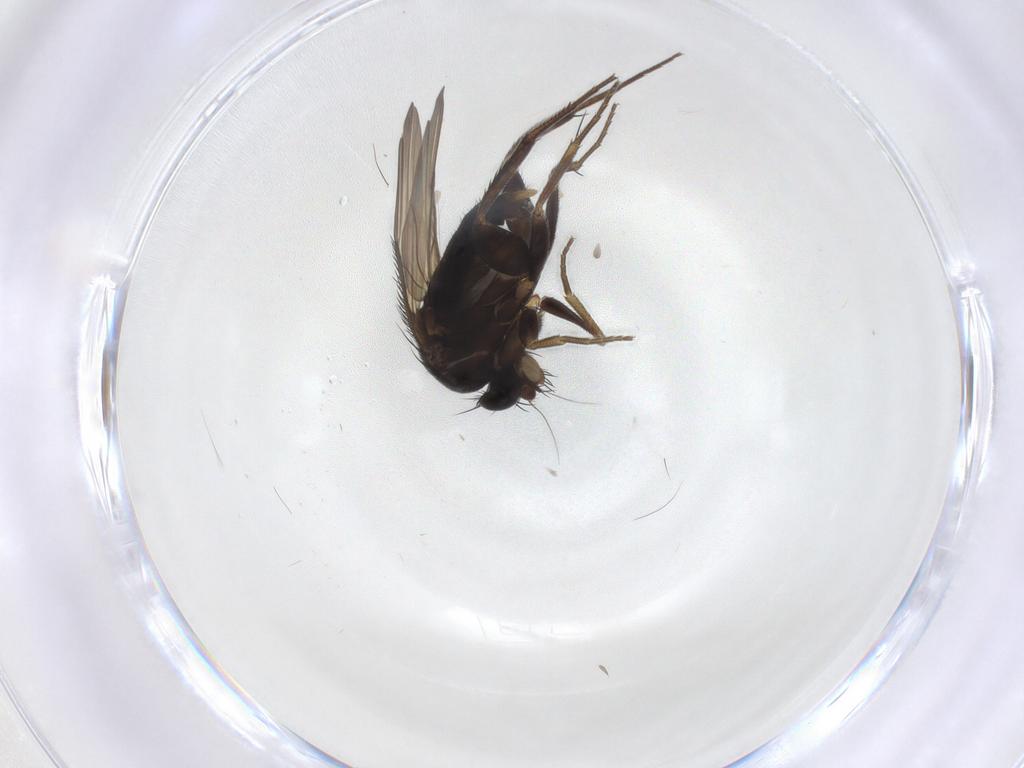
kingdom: Animalia
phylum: Arthropoda
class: Insecta
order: Diptera
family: Phoridae
